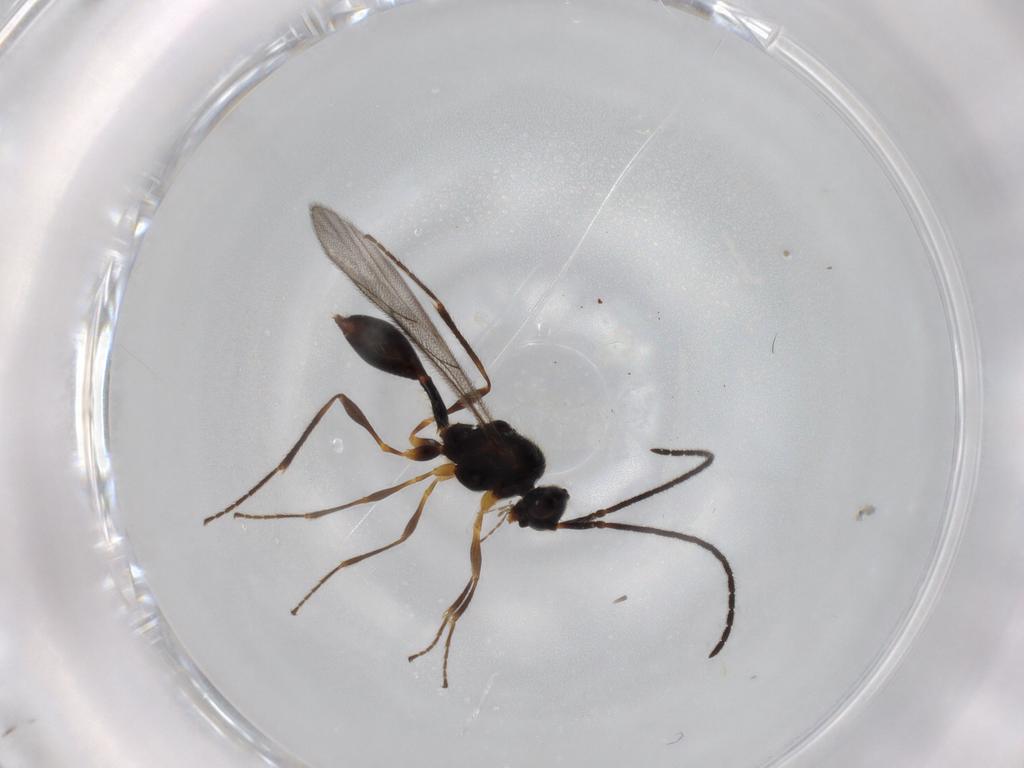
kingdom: Animalia
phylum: Arthropoda
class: Insecta
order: Hymenoptera
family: Diapriidae
